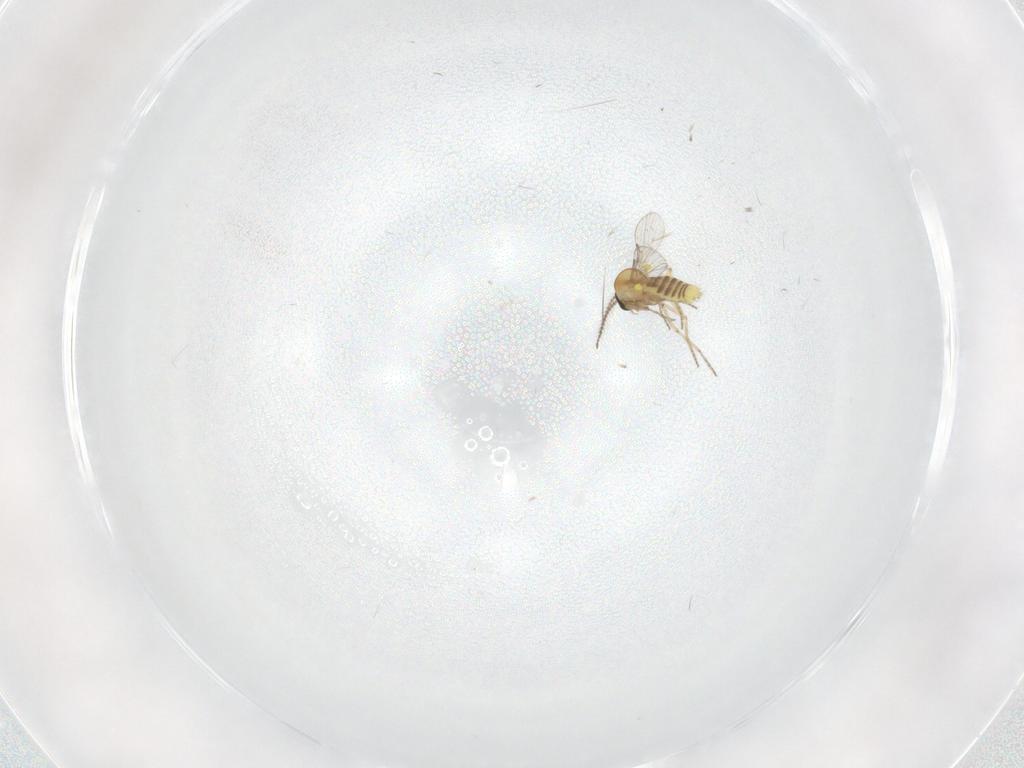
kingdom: Animalia
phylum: Arthropoda
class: Insecta
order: Diptera
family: Ceratopogonidae
